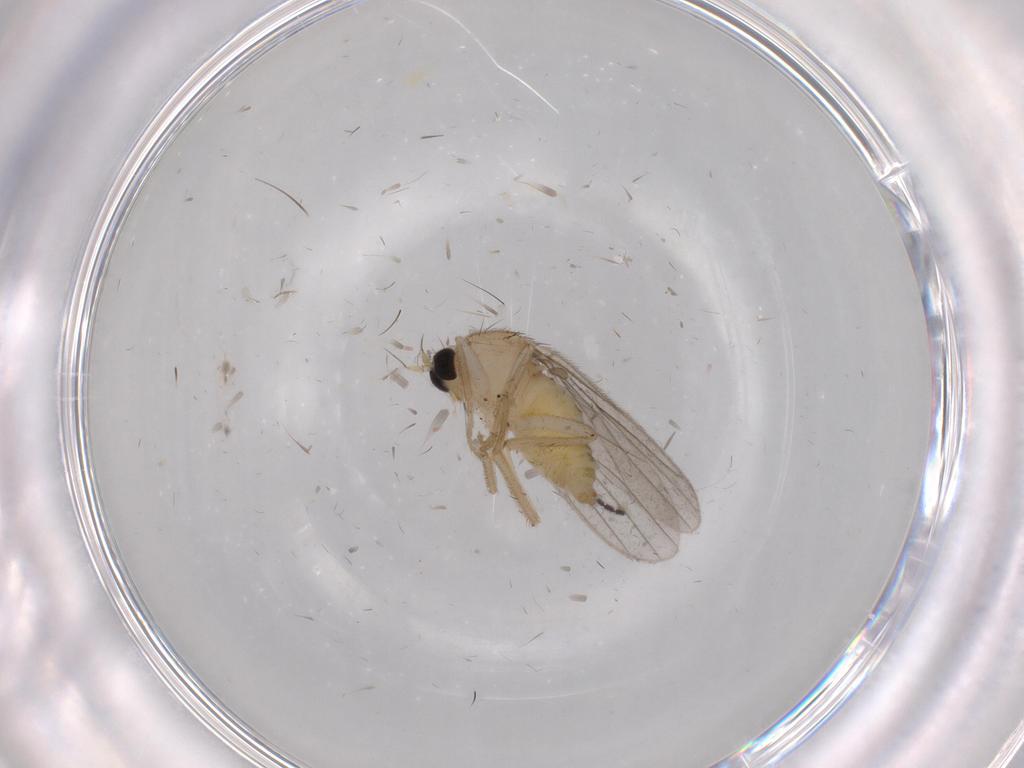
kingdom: Animalia
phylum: Arthropoda
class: Insecta
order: Diptera
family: Hybotidae
